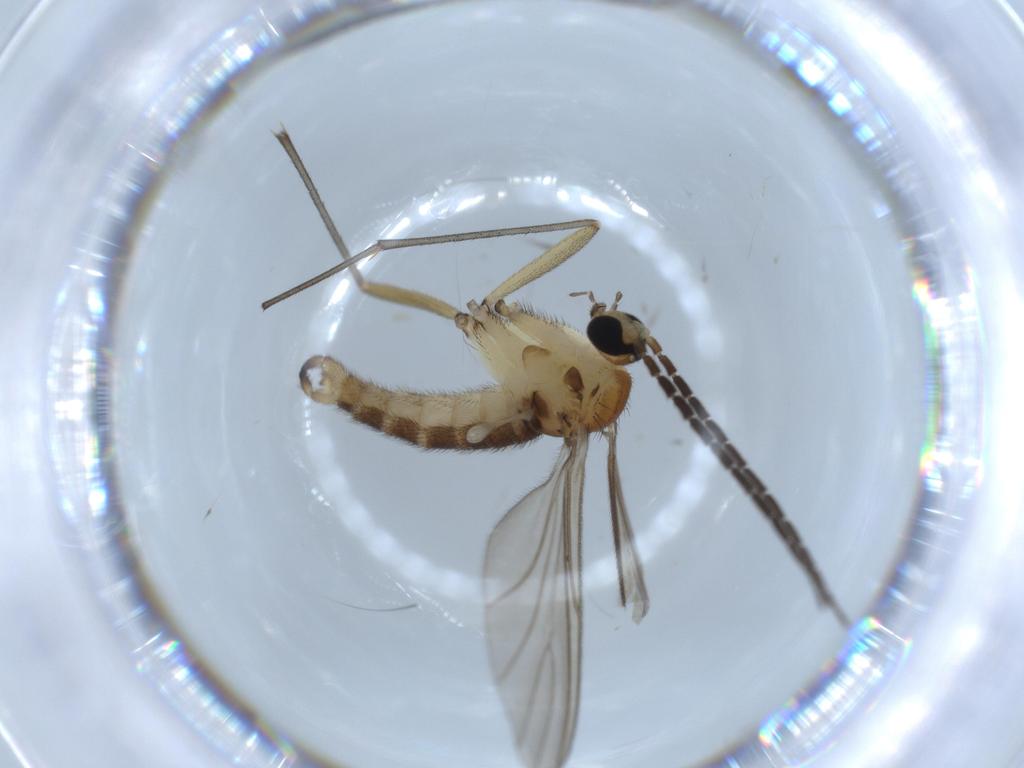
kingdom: Animalia
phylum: Arthropoda
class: Insecta
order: Diptera
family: Sciaridae
